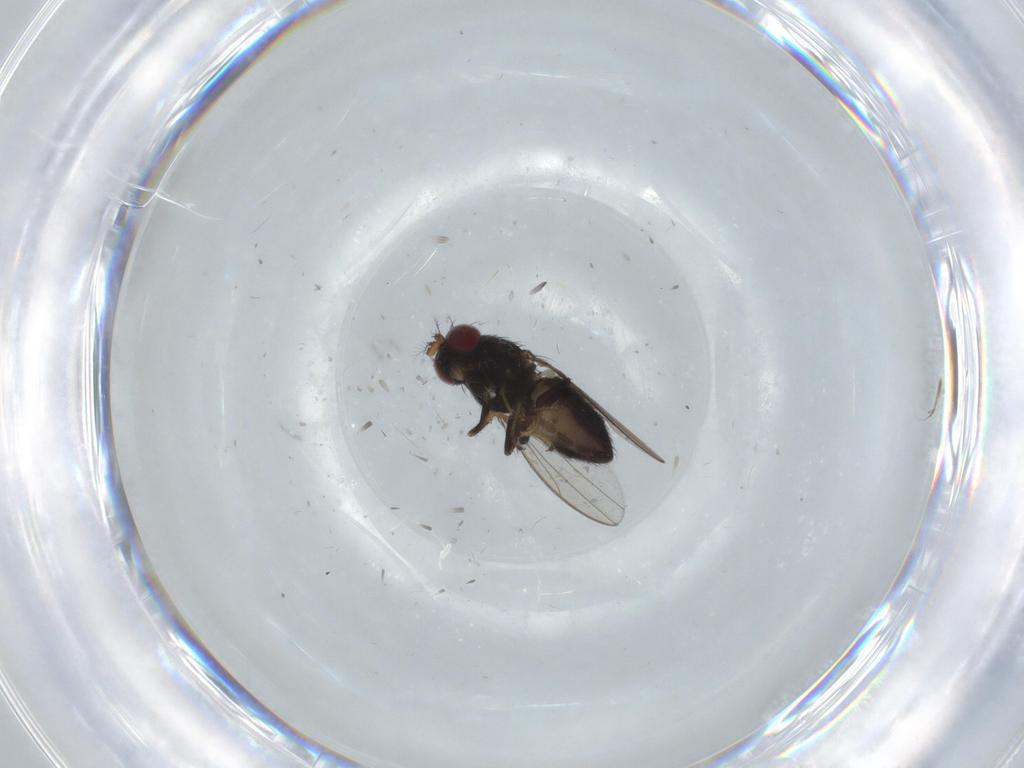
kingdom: Animalia
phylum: Arthropoda
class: Insecta
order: Diptera
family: Ephydridae
